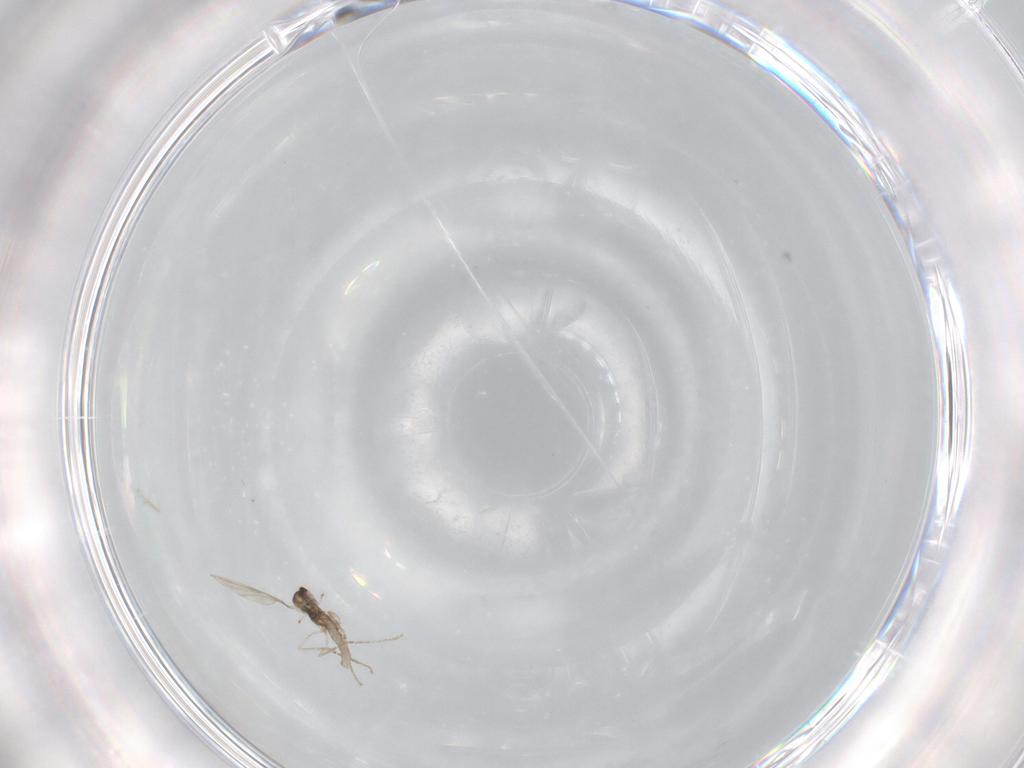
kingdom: Animalia
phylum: Arthropoda
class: Insecta
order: Diptera
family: Cecidomyiidae
